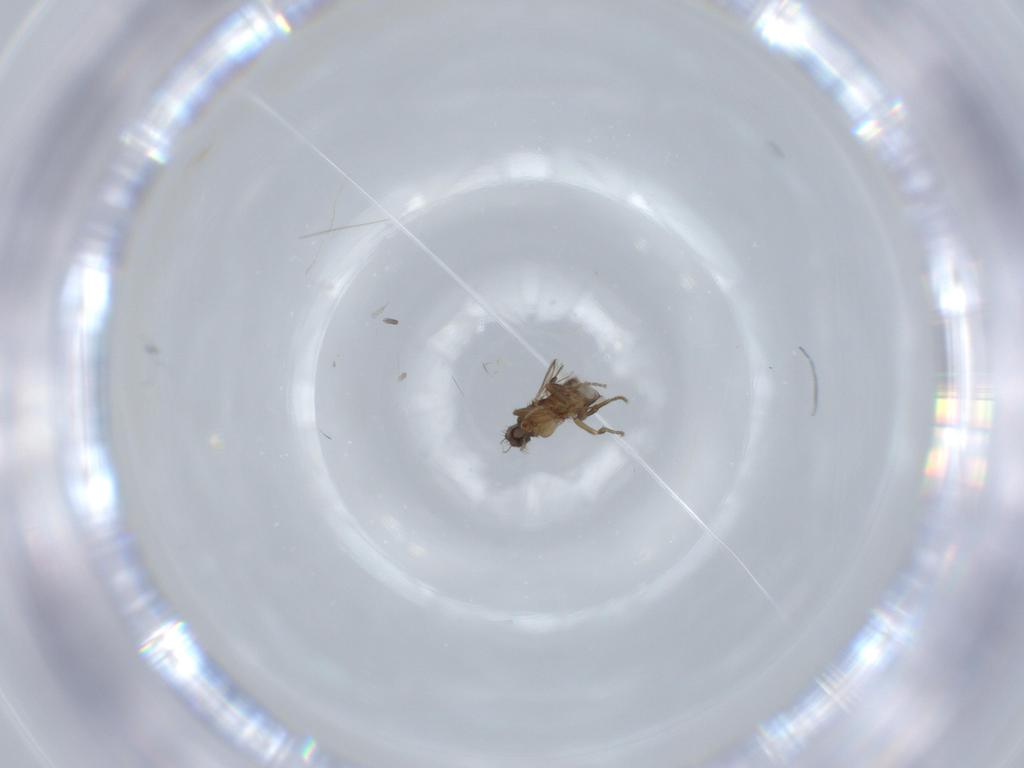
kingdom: Animalia
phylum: Arthropoda
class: Insecta
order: Diptera
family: Phoridae
